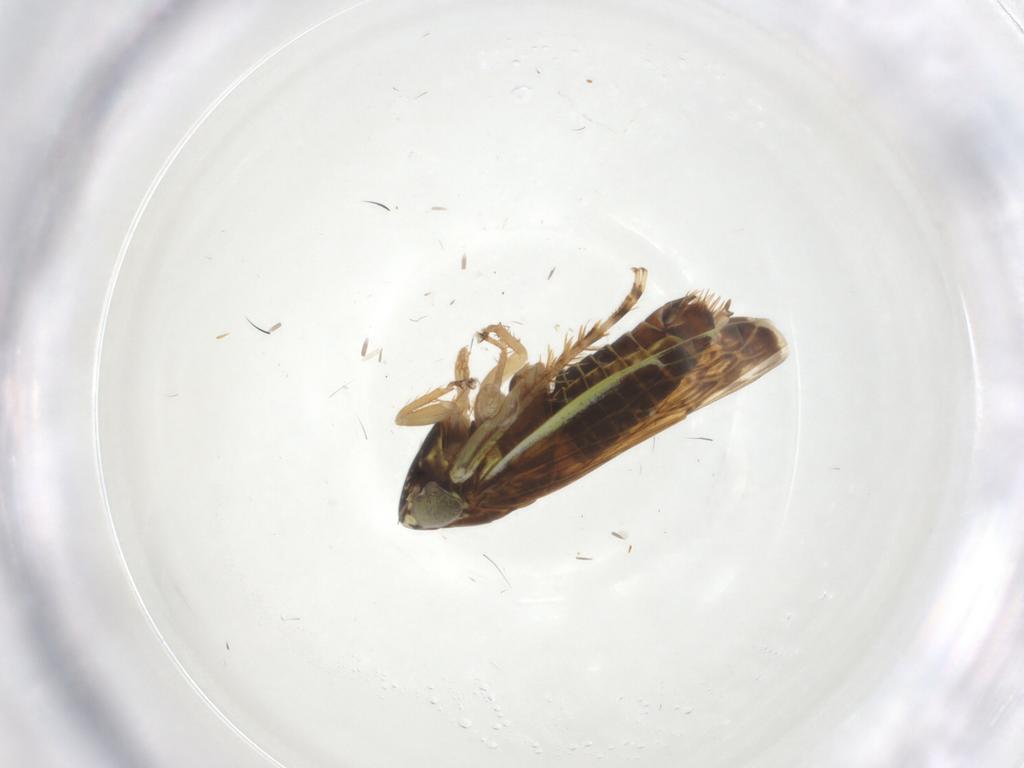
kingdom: Animalia
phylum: Arthropoda
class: Insecta
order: Hemiptera
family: Cicadellidae
